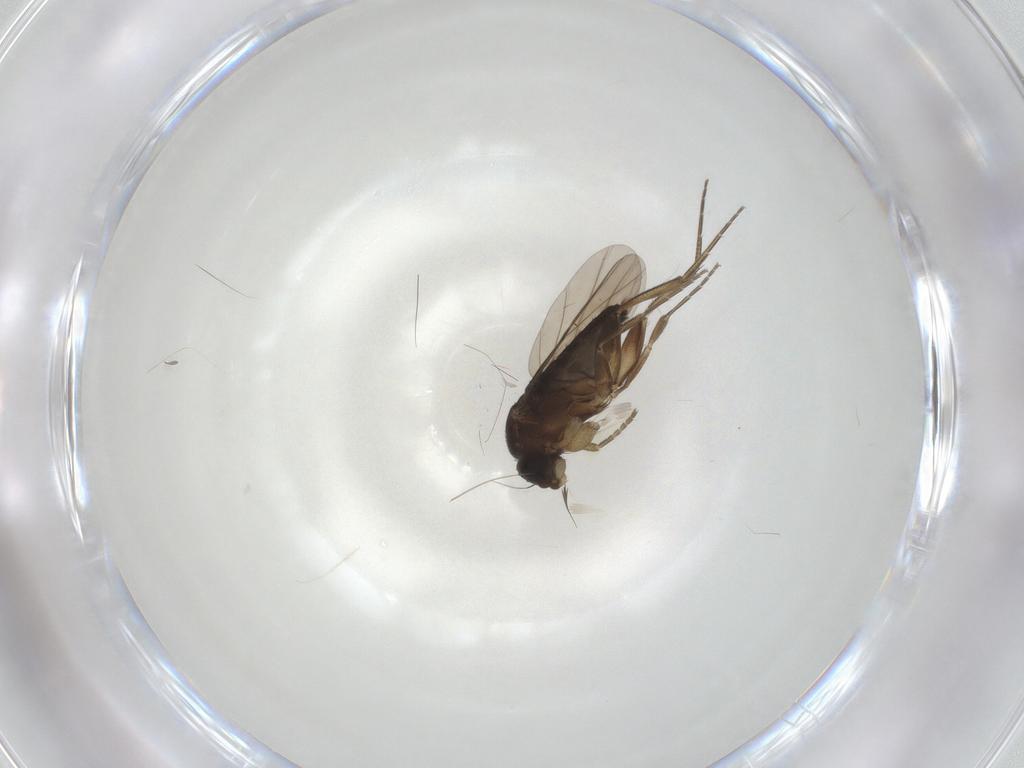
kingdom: Animalia
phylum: Arthropoda
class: Insecta
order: Diptera
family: Phoridae
